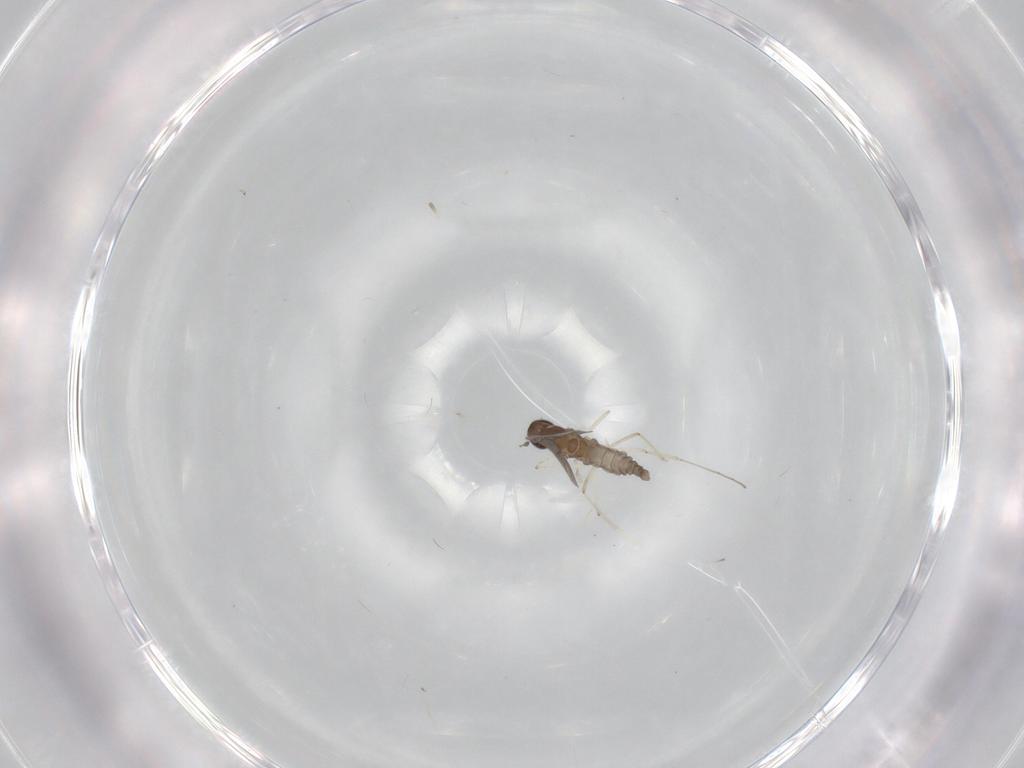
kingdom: Animalia
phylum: Arthropoda
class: Insecta
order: Diptera
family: Cecidomyiidae
